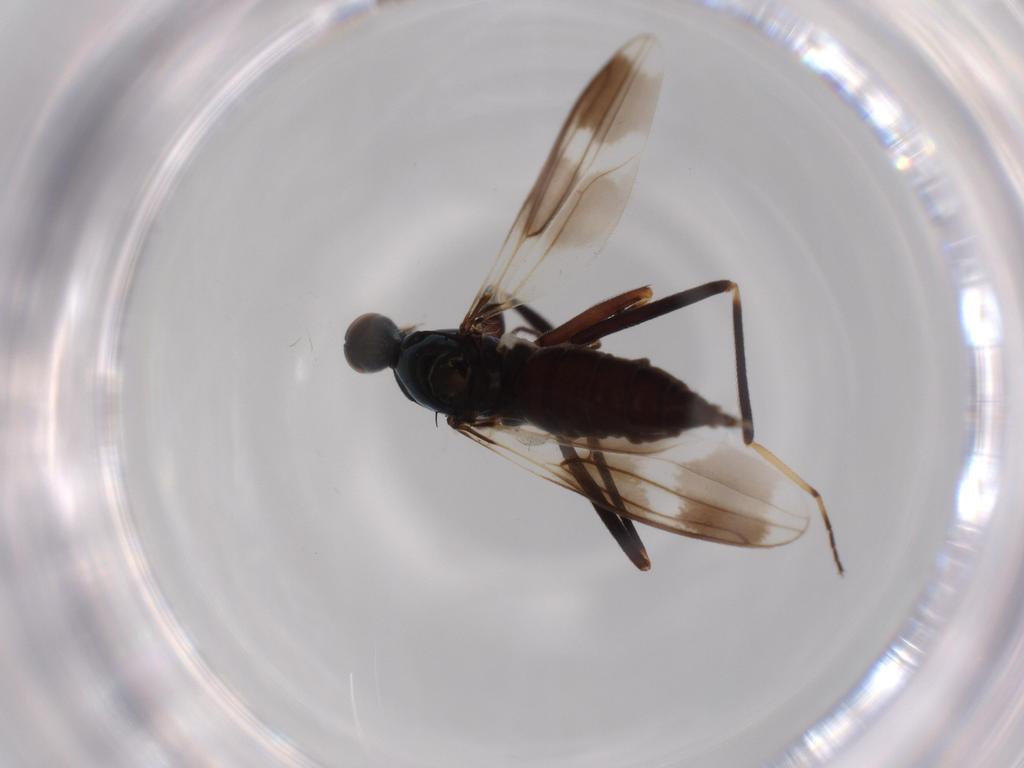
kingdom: Animalia
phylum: Arthropoda
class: Insecta
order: Diptera
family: Hybotidae
